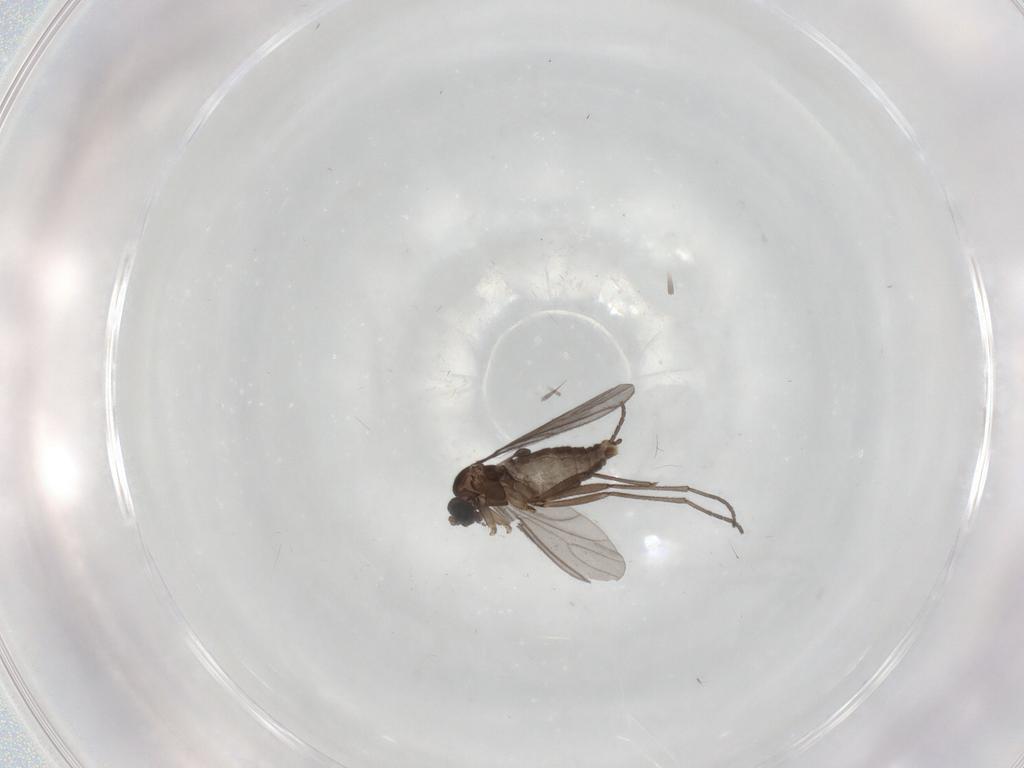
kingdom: Animalia
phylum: Arthropoda
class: Insecta
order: Diptera
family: Sciaridae
